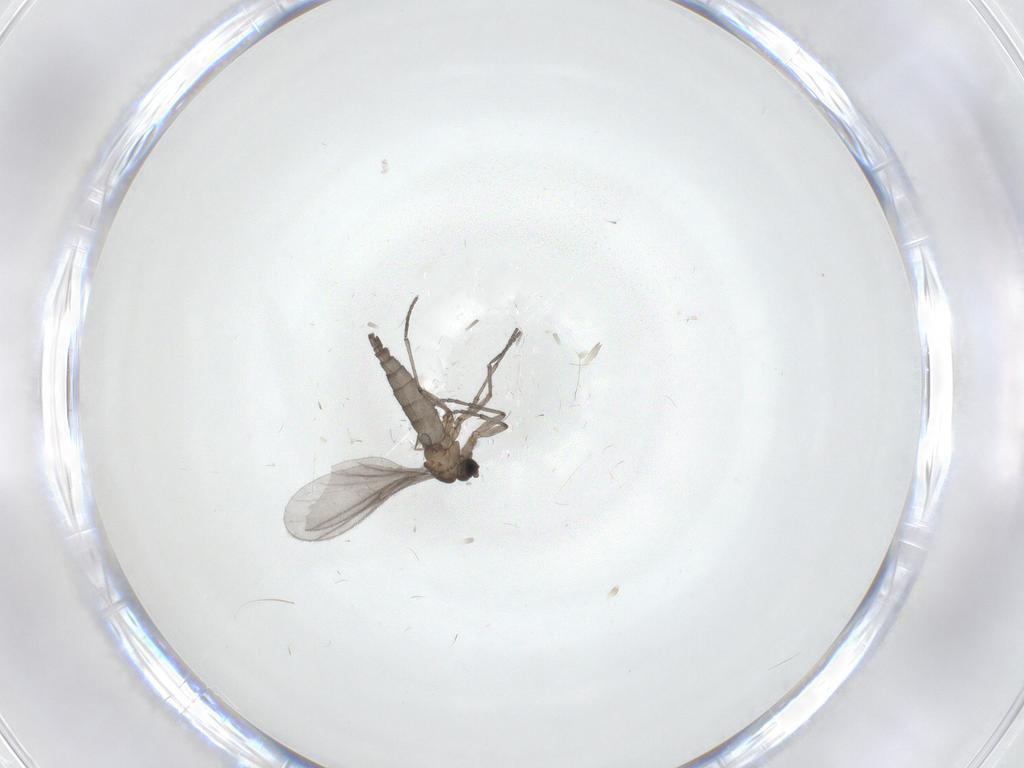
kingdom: Animalia
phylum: Arthropoda
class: Insecta
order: Diptera
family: Sciaridae
